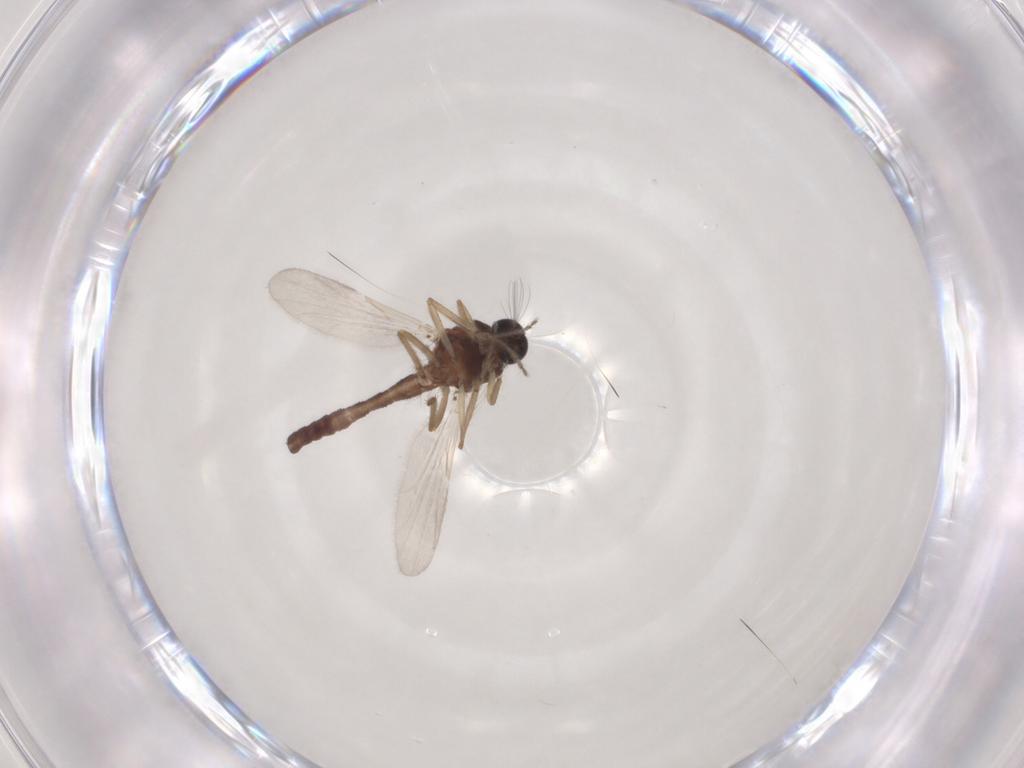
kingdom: Animalia
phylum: Arthropoda
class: Insecta
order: Diptera
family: Ceratopogonidae
